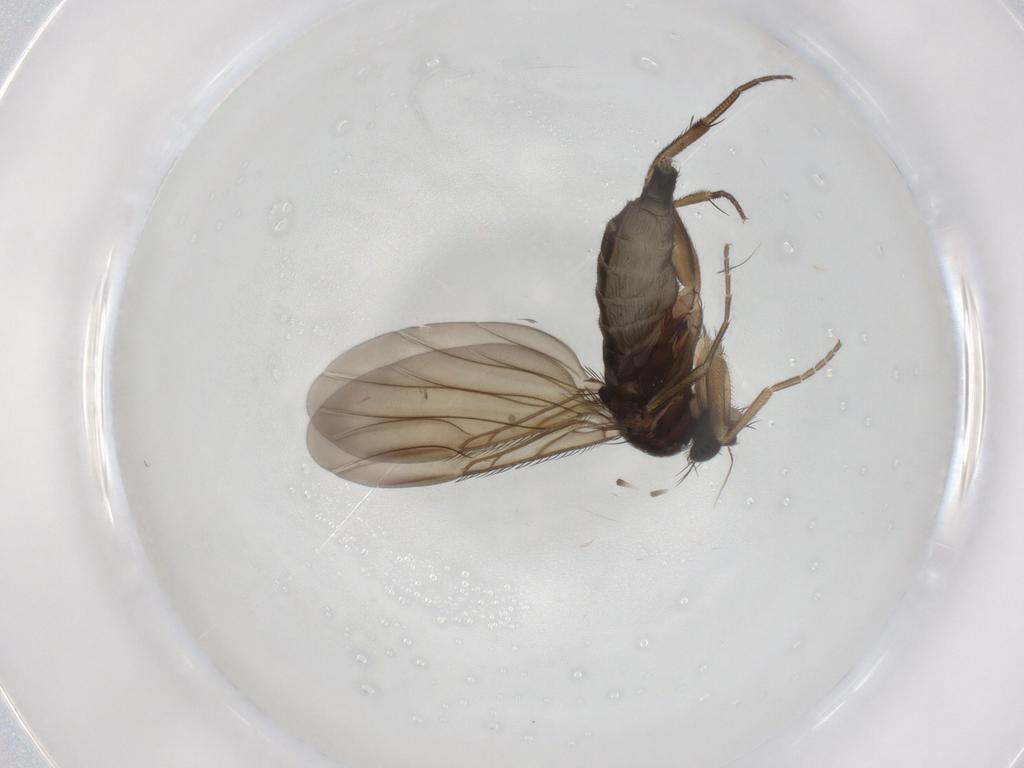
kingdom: Animalia
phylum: Arthropoda
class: Insecta
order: Diptera
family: Phoridae
